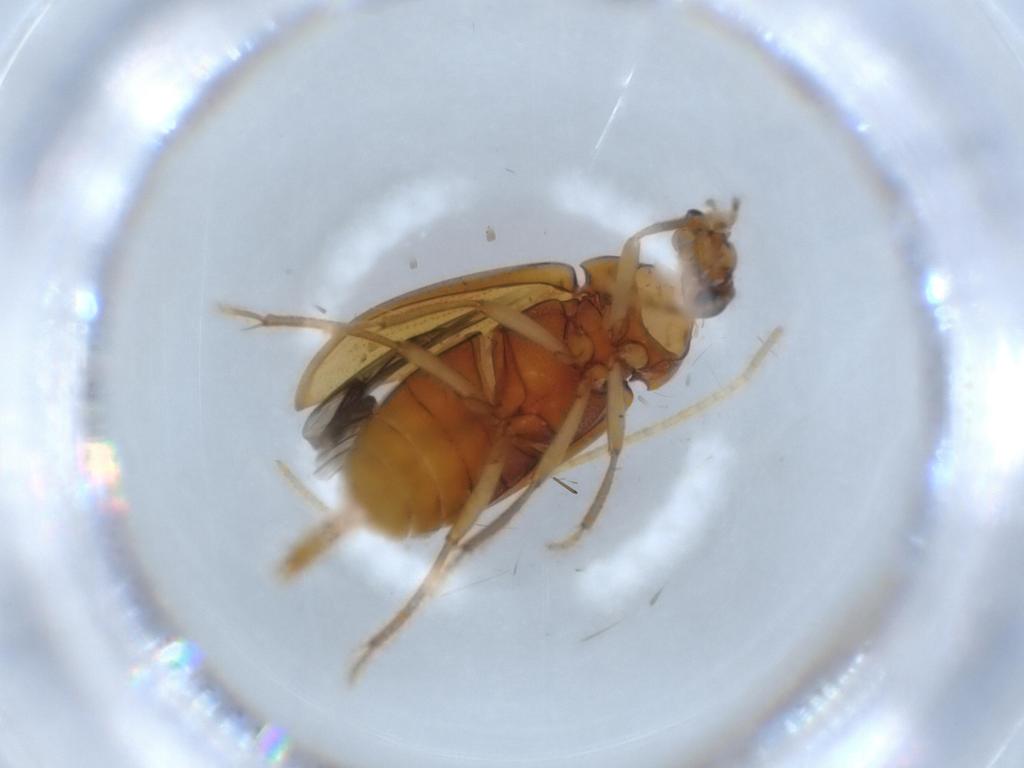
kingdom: Animalia
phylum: Arthropoda
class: Insecta
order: Coleoptera
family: Ptilodactylidae
